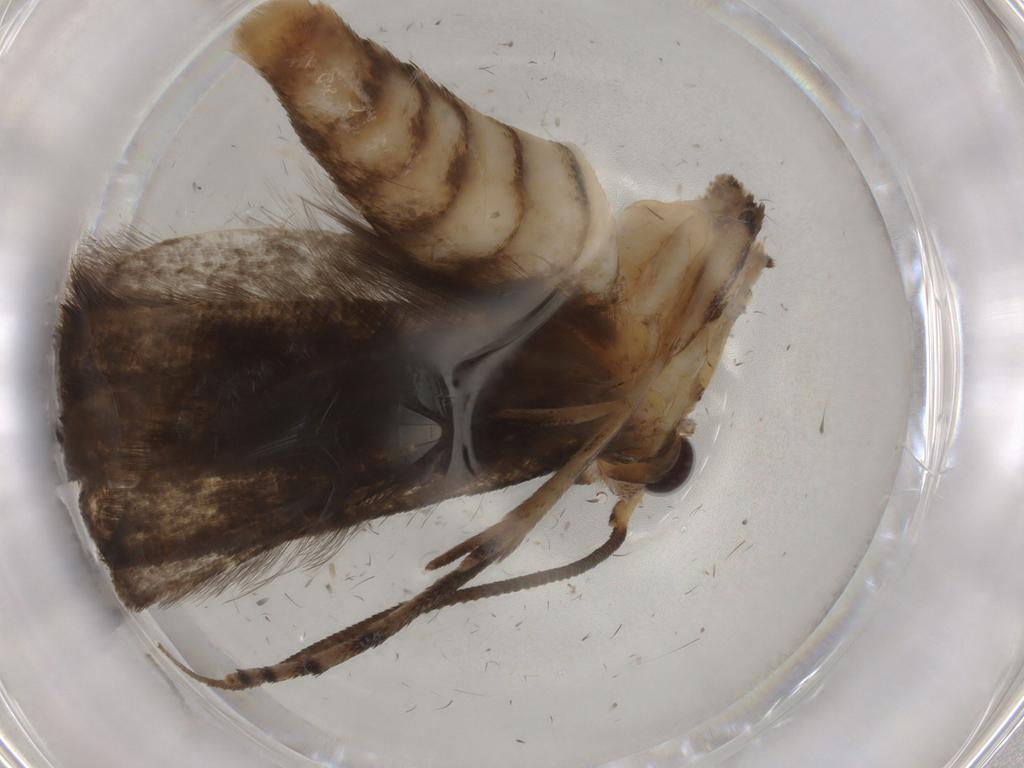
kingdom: Animalia
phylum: Arthropoda
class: Insecta
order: Lepidoptera
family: Yponomeutidae
